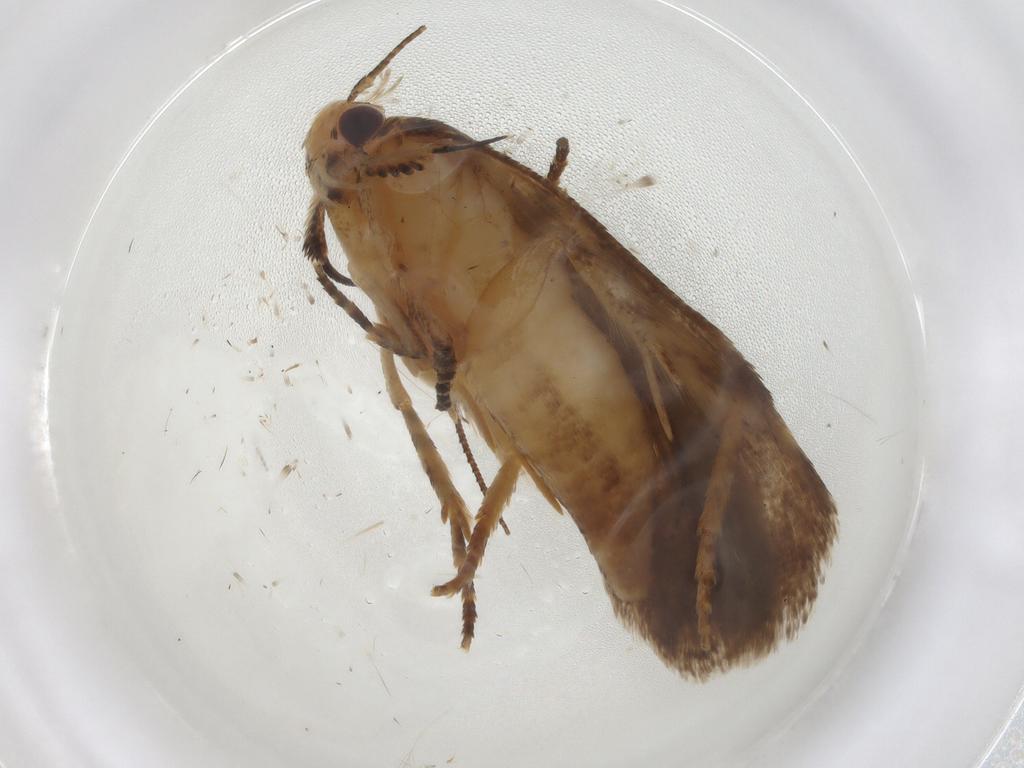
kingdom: Animalia
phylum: Arthropoda
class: Insecta
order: Lepidoptera
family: Gelechiidae
